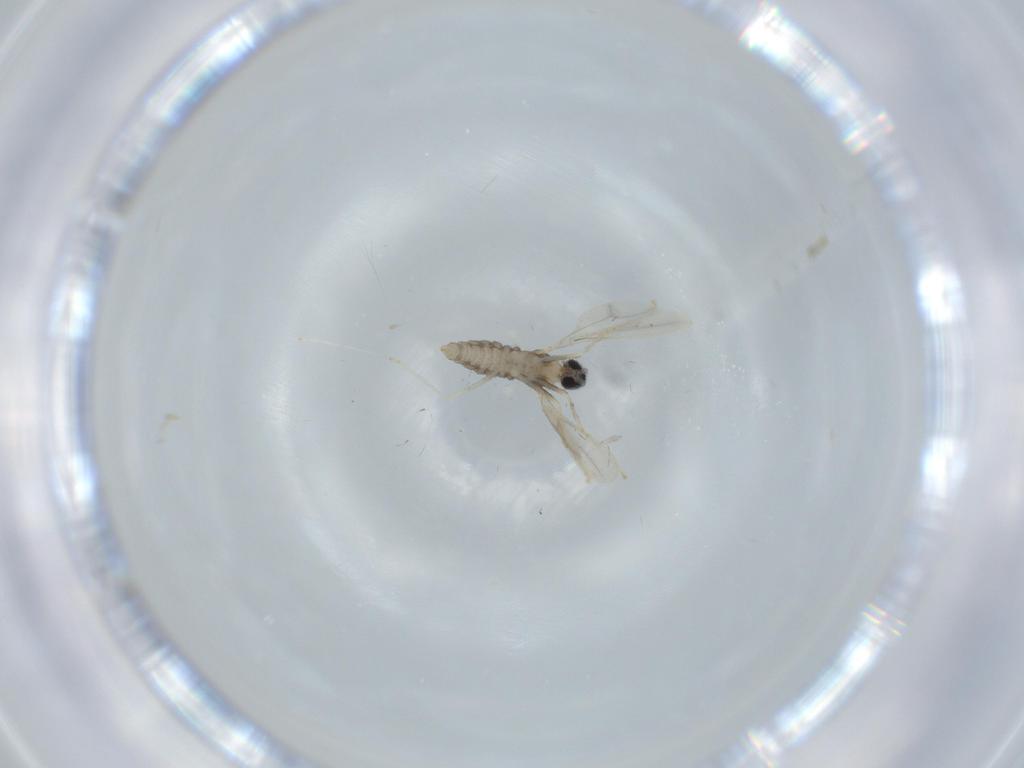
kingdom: Animalia
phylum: Arthropoda
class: Insecta
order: Diptera
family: Cecidomyiidae
